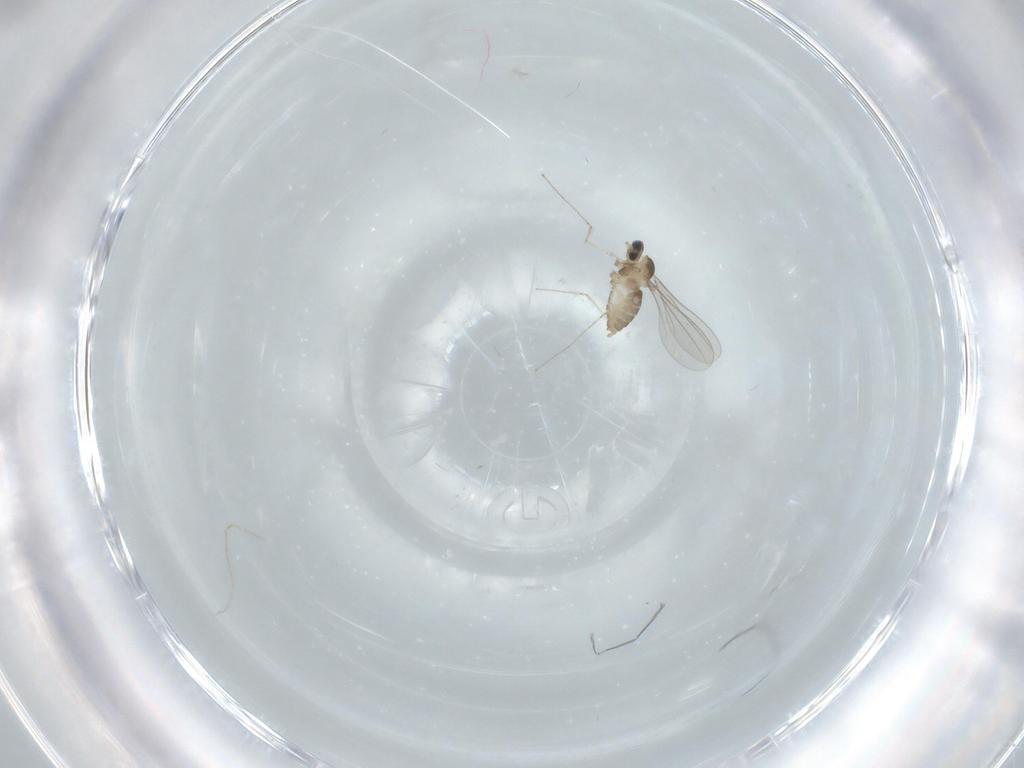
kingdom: Animalia
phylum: Arthropoda
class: Insecta
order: Diptera
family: Cecidomyiidae
